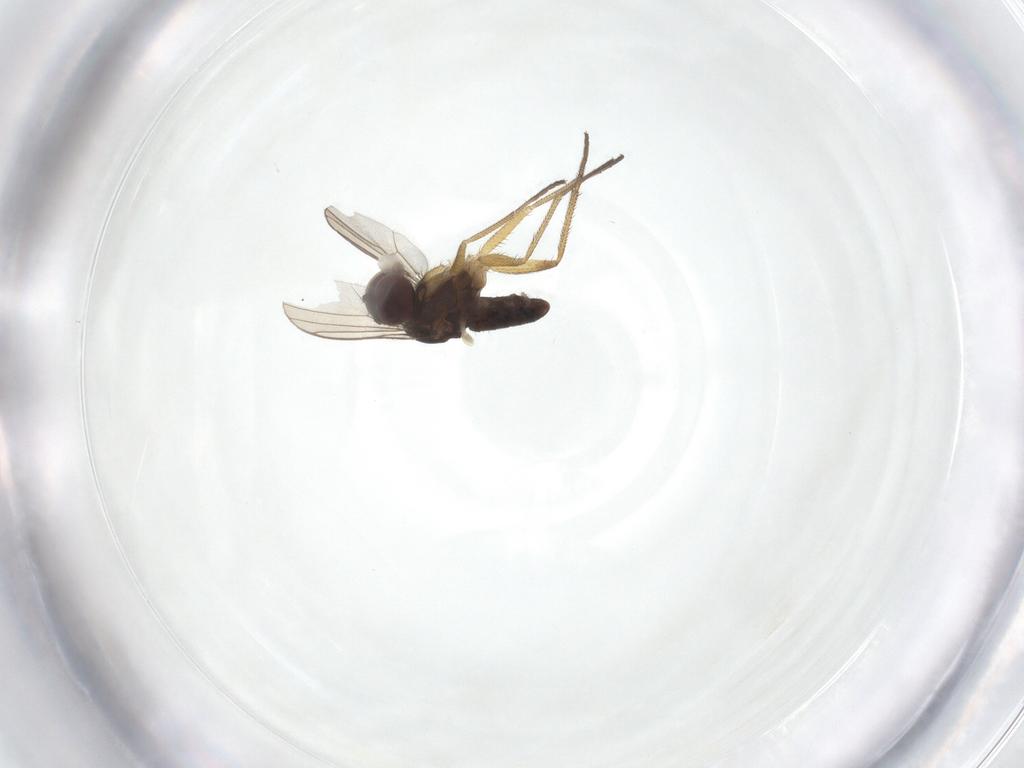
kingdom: Animalia
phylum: Arthropoda
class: Insecta
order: Diptera
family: Dolichopodidae
